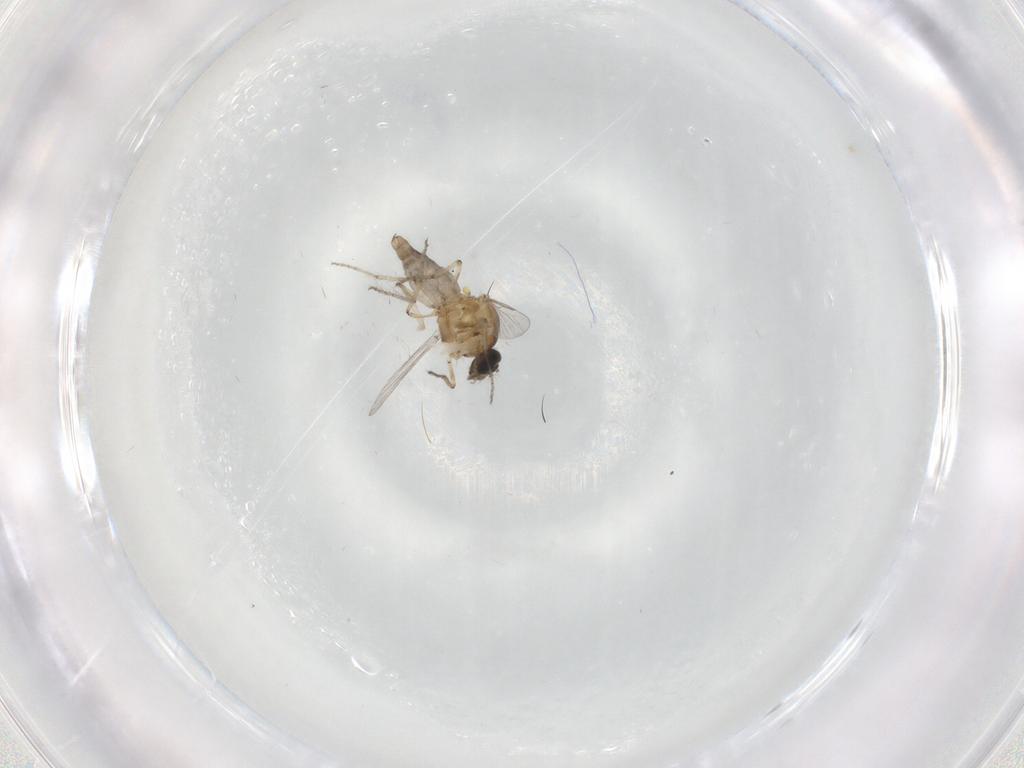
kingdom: Animalia
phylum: Arthropoda
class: Insecta
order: Diptera
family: Ceratopogonidae
